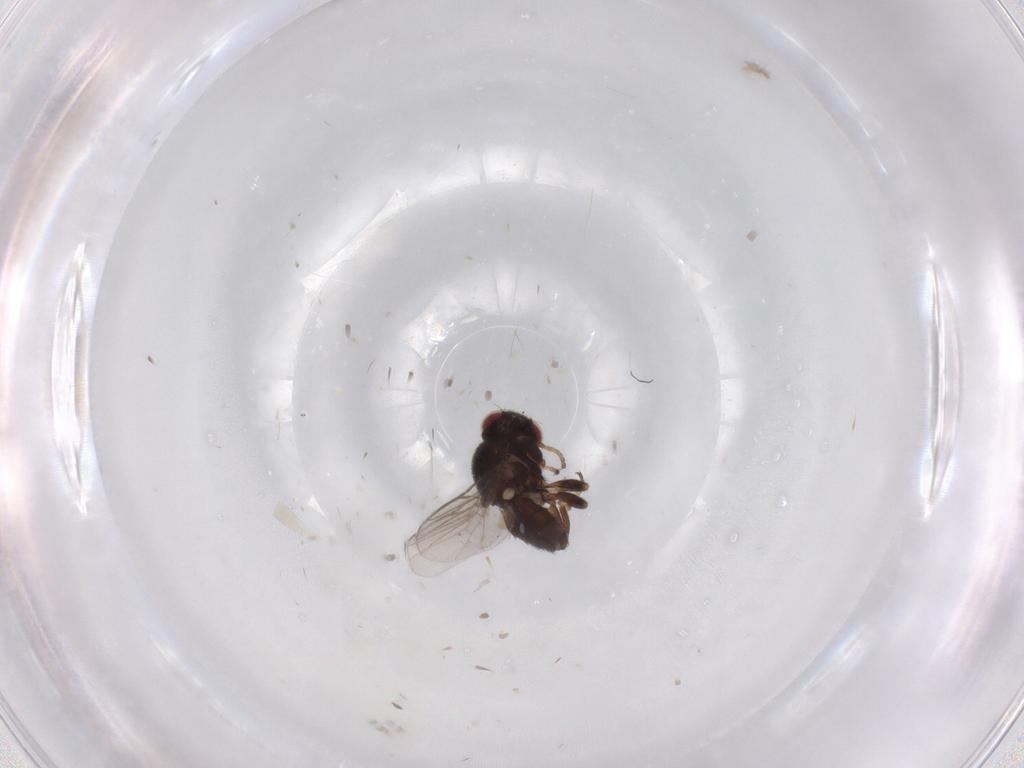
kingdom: Animalia
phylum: Arthropoda
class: Insecta
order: Diptera
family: Chloropidae
